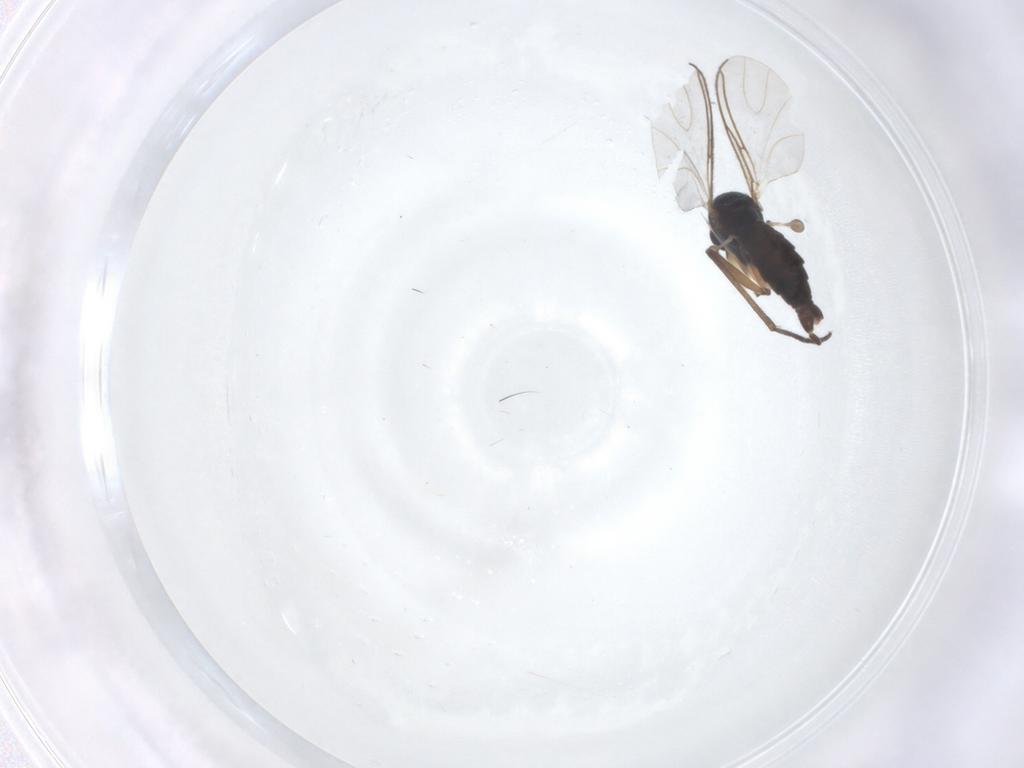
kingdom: Animalia
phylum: Arthropoda
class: Insecta
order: Diptera
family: Sciaridae
